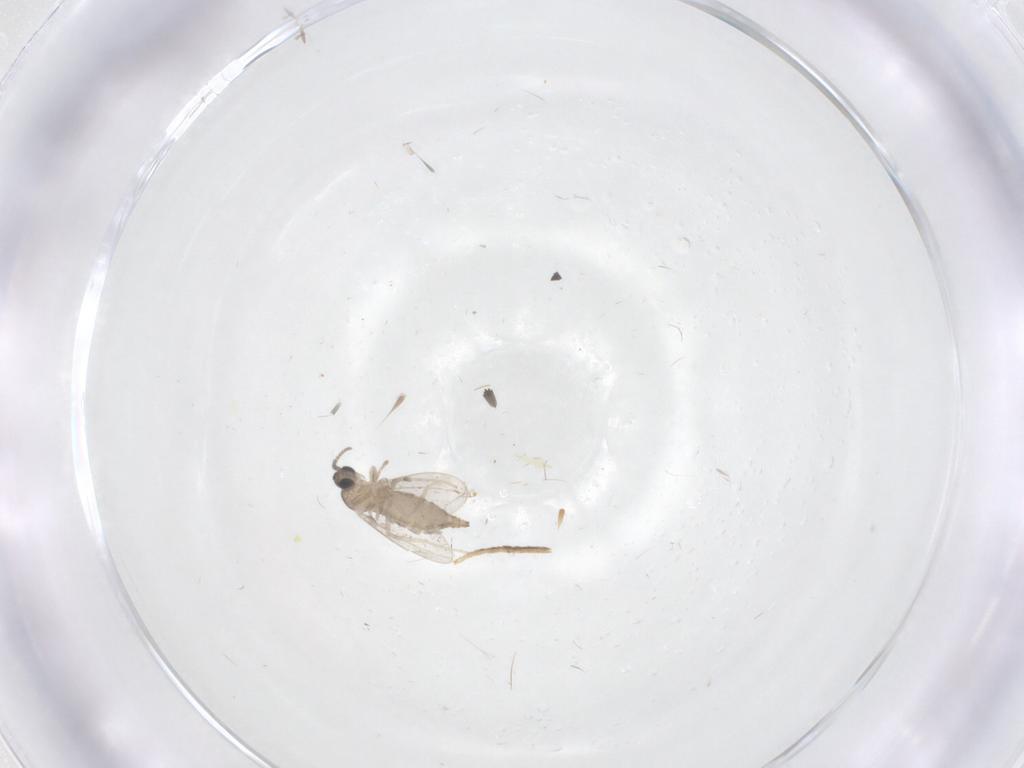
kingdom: Animalia
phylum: Arthropoda
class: Insecta
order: Diptera
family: Cecidomyiidae
